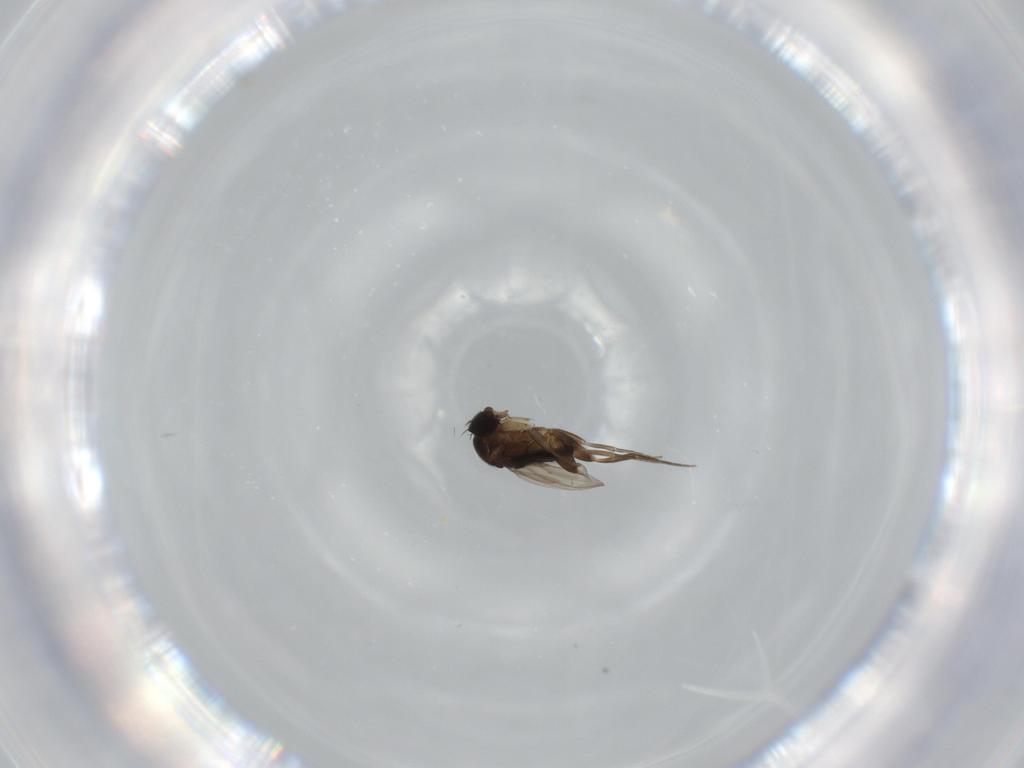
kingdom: Animalia
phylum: Arthropoda
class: Insecta
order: Diptera
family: Phoridae
